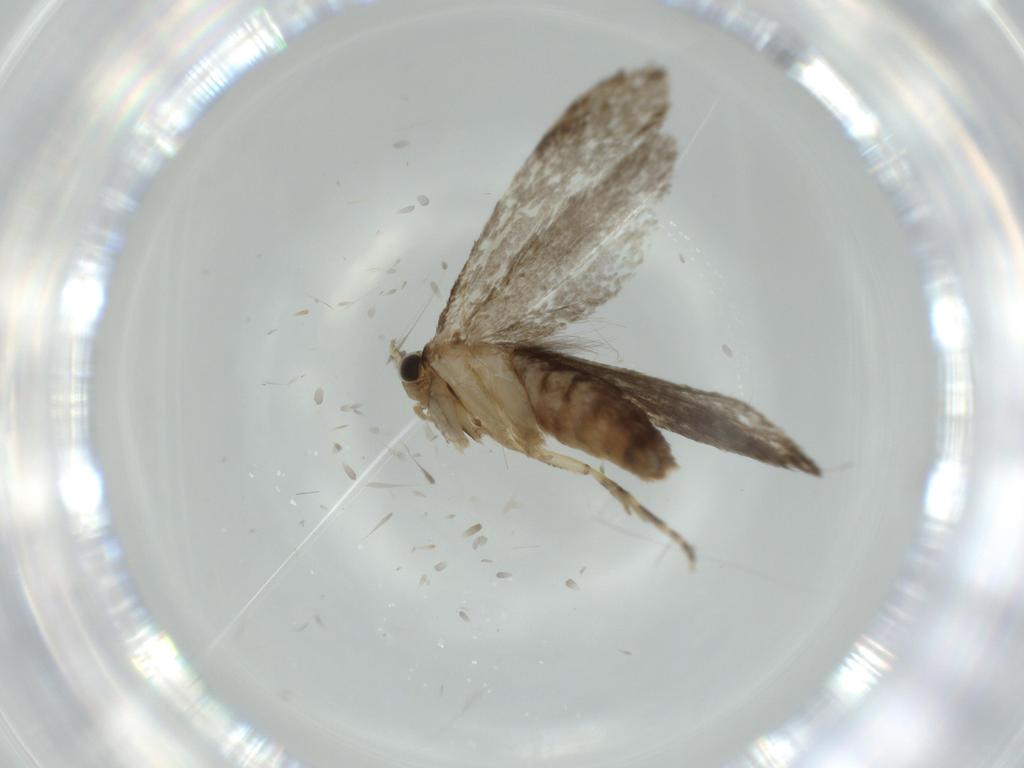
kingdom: Animalia
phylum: Arthropoda
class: Insecta
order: Lepidoptera
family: Tineidae
